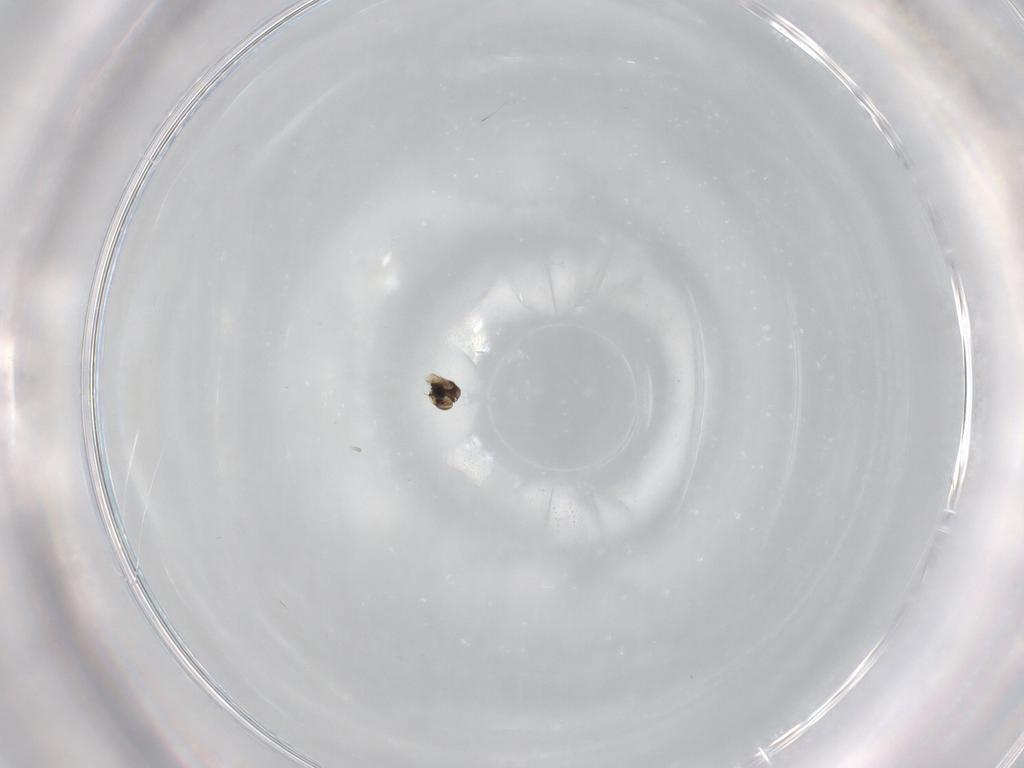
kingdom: Animalia
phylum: Arthropoda
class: Insecta
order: Diptera
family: Phoridae
